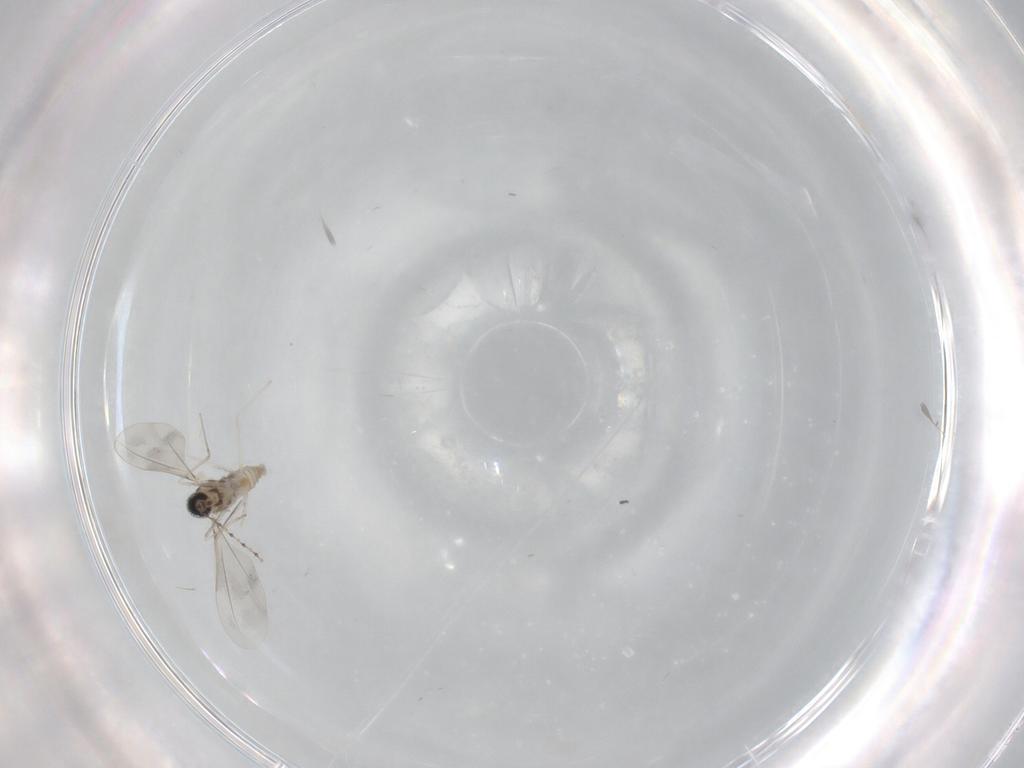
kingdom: Animalia
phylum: Arthropoda
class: Insecta
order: Diptera
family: Cecidomyiidae
